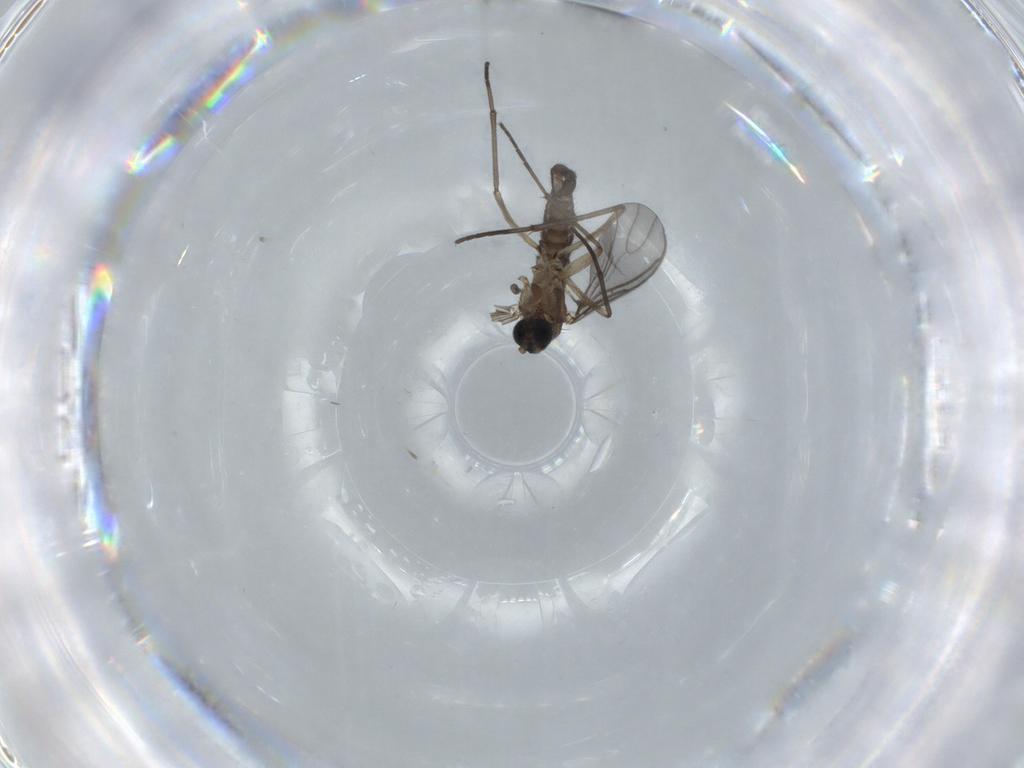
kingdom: Animalia
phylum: Arthropoda
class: Insecta
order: Diptera
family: Sciaridae
